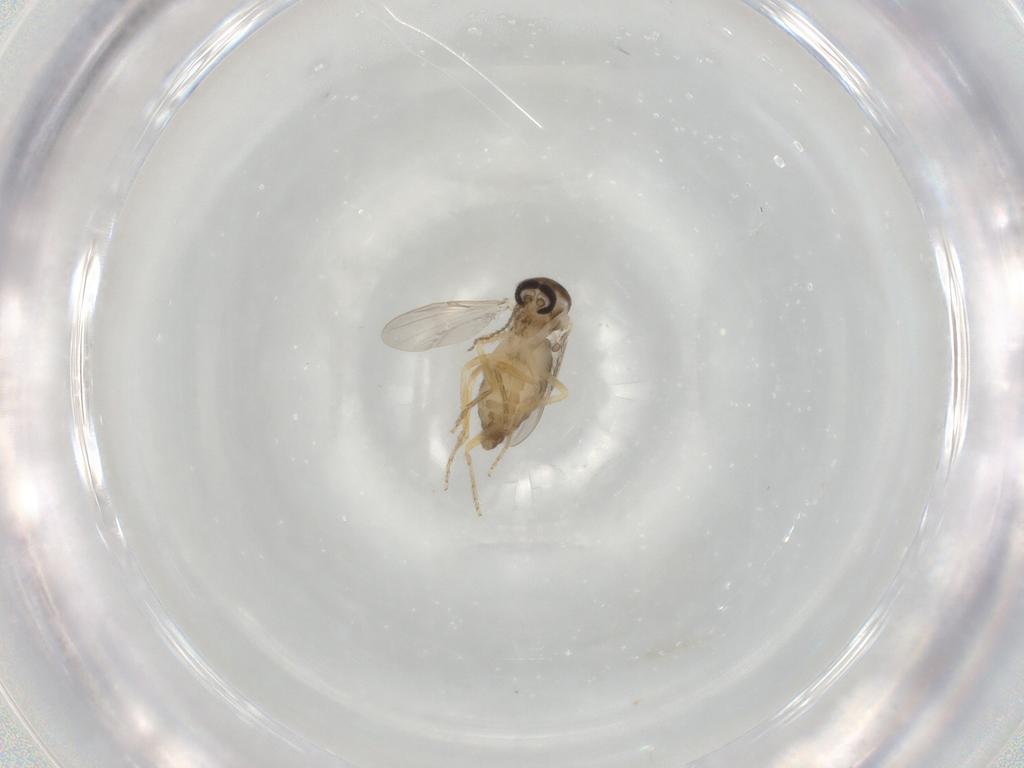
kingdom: Animalia
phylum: Arthropoda
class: Insecta
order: Diptera
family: Ceratopogonidae
